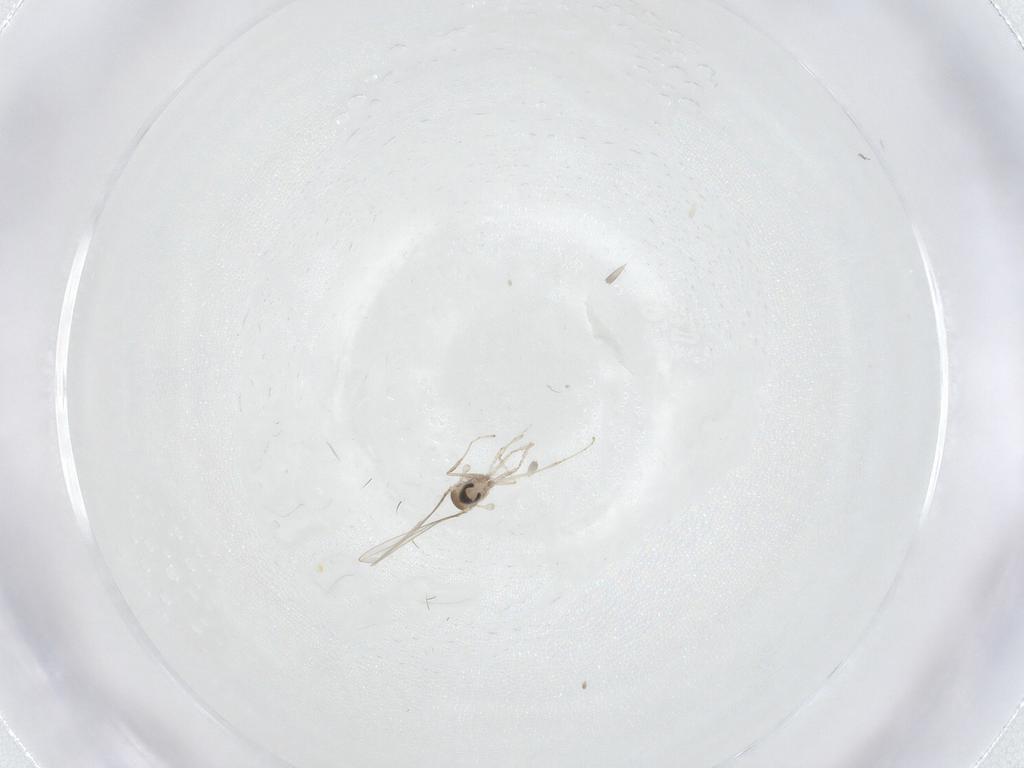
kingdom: Animalia
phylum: Arthropoda
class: Insecta
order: Diptera
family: Cecidomyiidae
